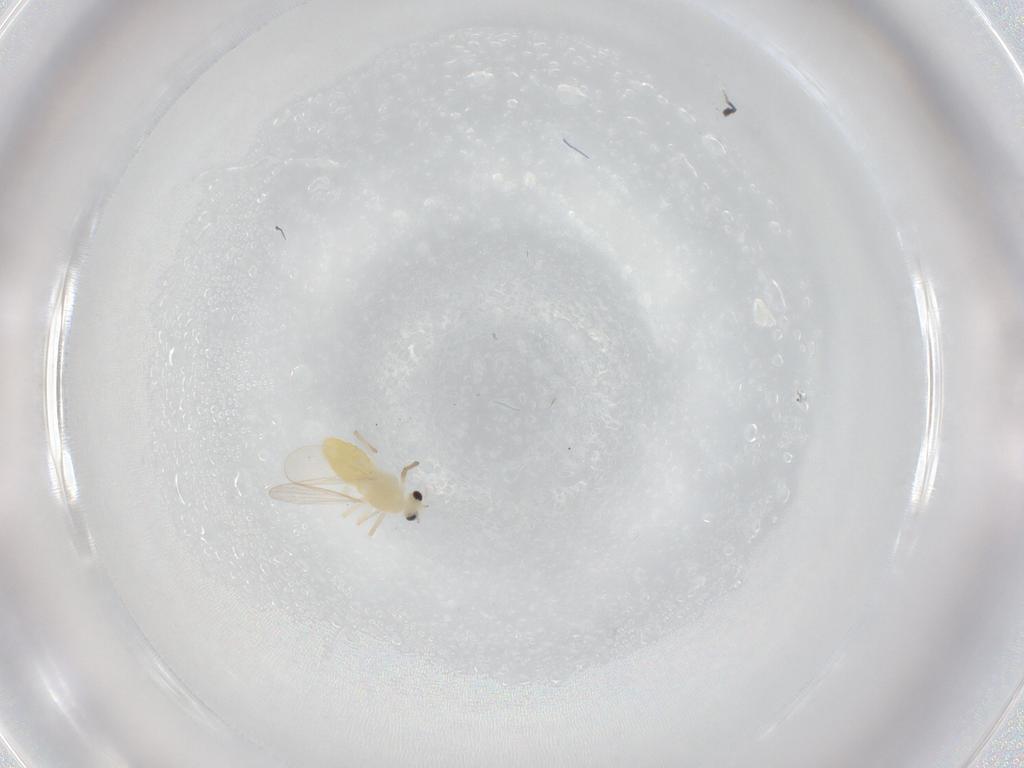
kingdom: Animalia
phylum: Arthropoda
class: Insecta
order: Diptera
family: Chironomidae
